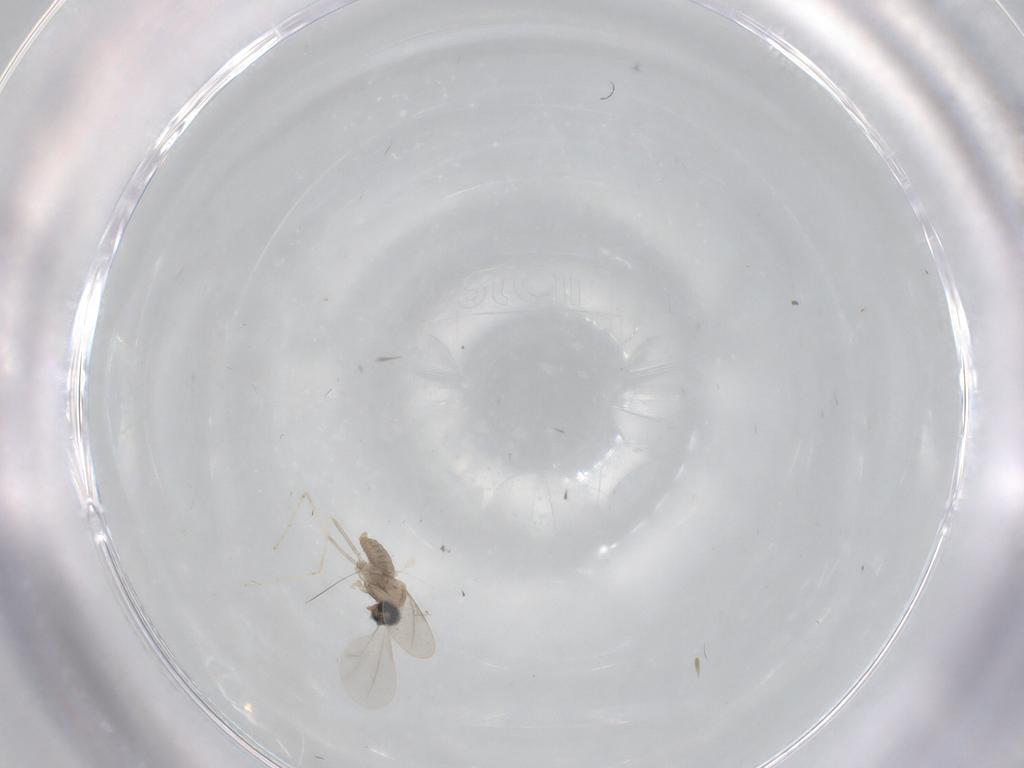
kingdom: Animalia
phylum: Arthropoda
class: Insecta
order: Diptera
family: Cecidomyiidae
